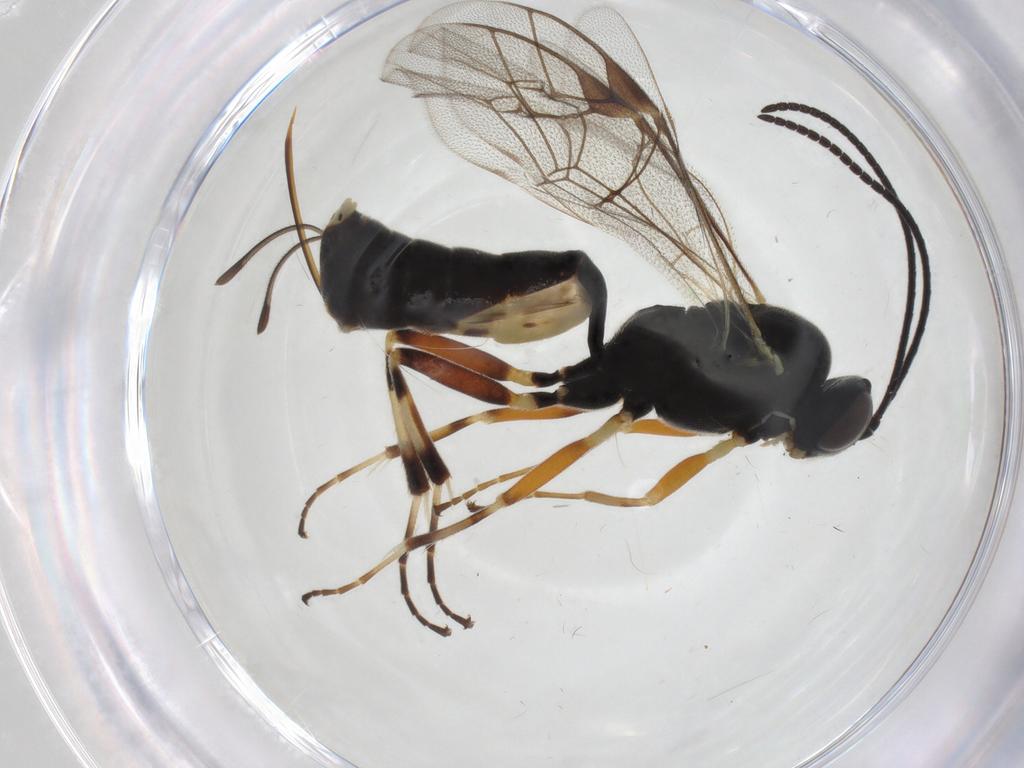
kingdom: Animalia
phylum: Arthropoda
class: Insecta
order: Hymenoptera
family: Ichneumonidae
